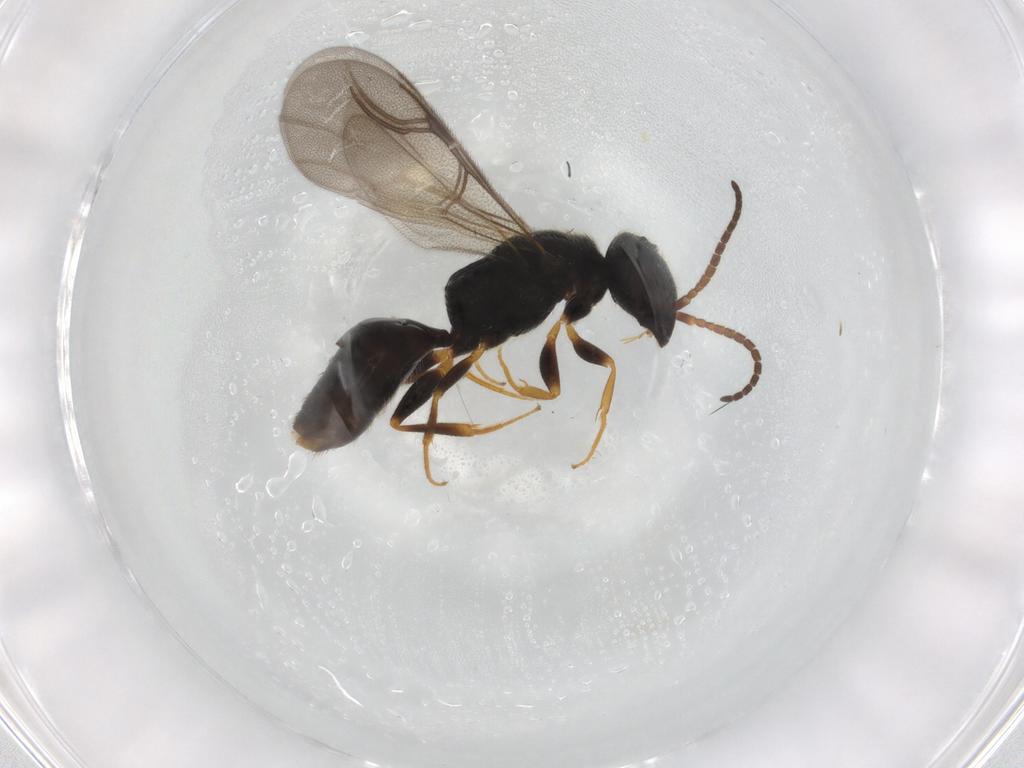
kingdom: Animalia
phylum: Arthropoda
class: Insecta
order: Hymenoptera
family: Bethylidae
